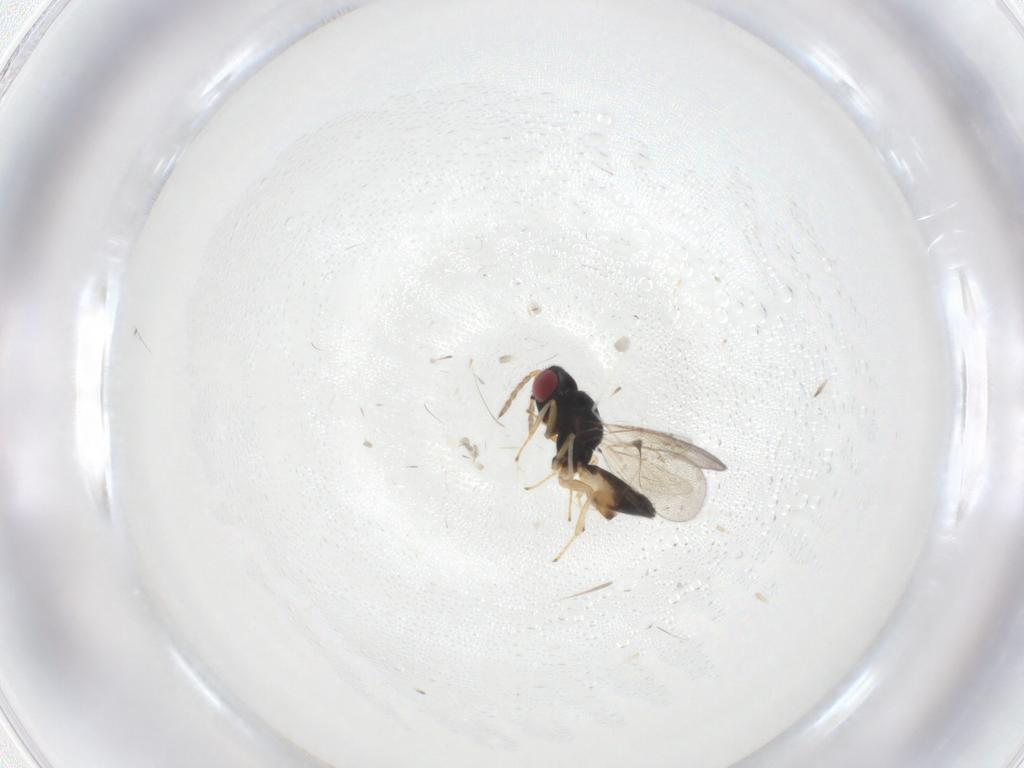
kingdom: Animalia
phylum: Arthropoda
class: Insecta
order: Hymenoptera
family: Eulophidae
